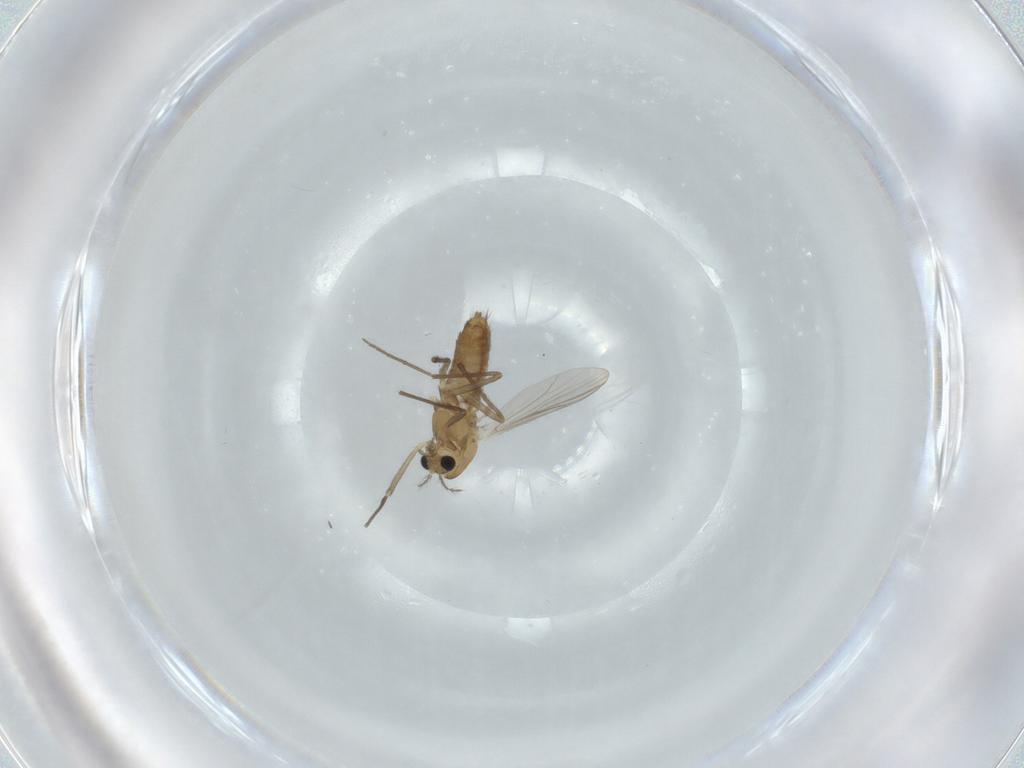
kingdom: Animalia
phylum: Arthropoda
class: Insecta
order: Diptera
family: Chironomidae
